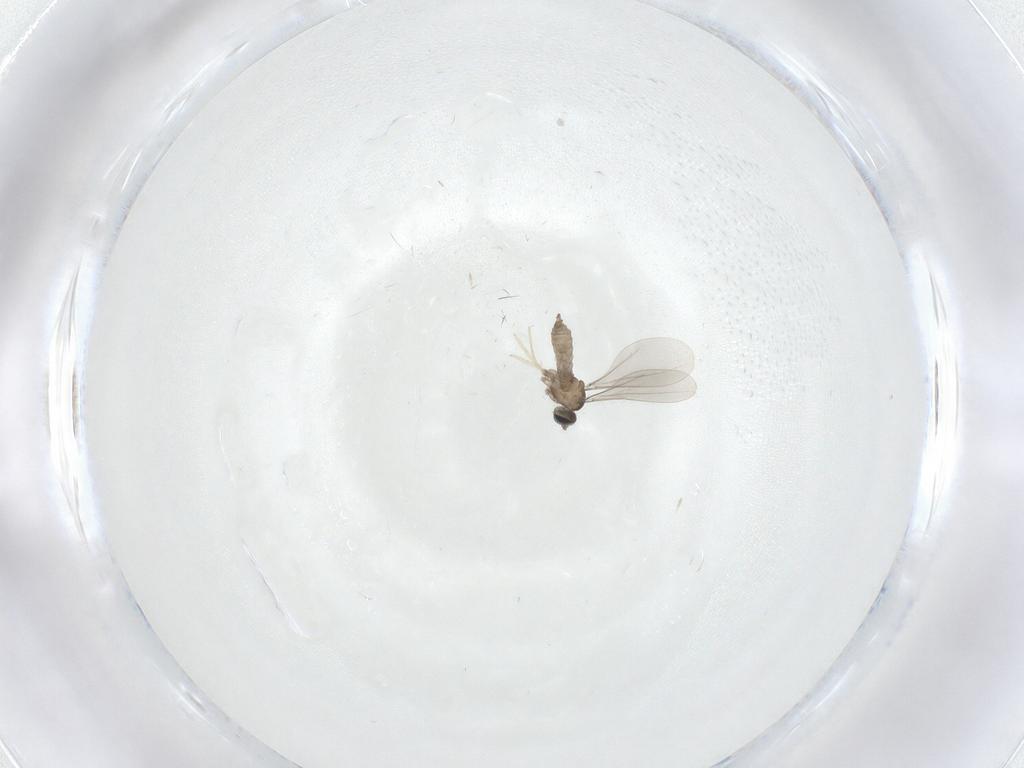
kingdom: Animalia
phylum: Arthropoda
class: Insecta
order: Diptera
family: Cecidomyiidae
